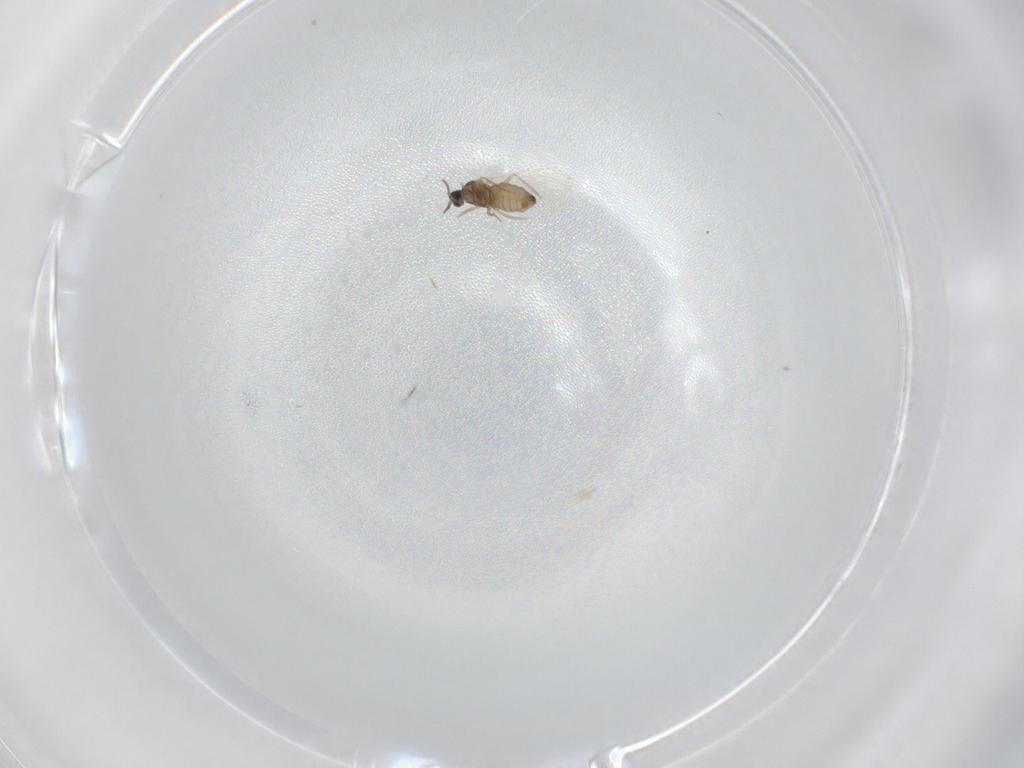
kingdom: Animalia
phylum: Arthropoda
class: Insecta
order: Diptera
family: Cecidomyiidae
